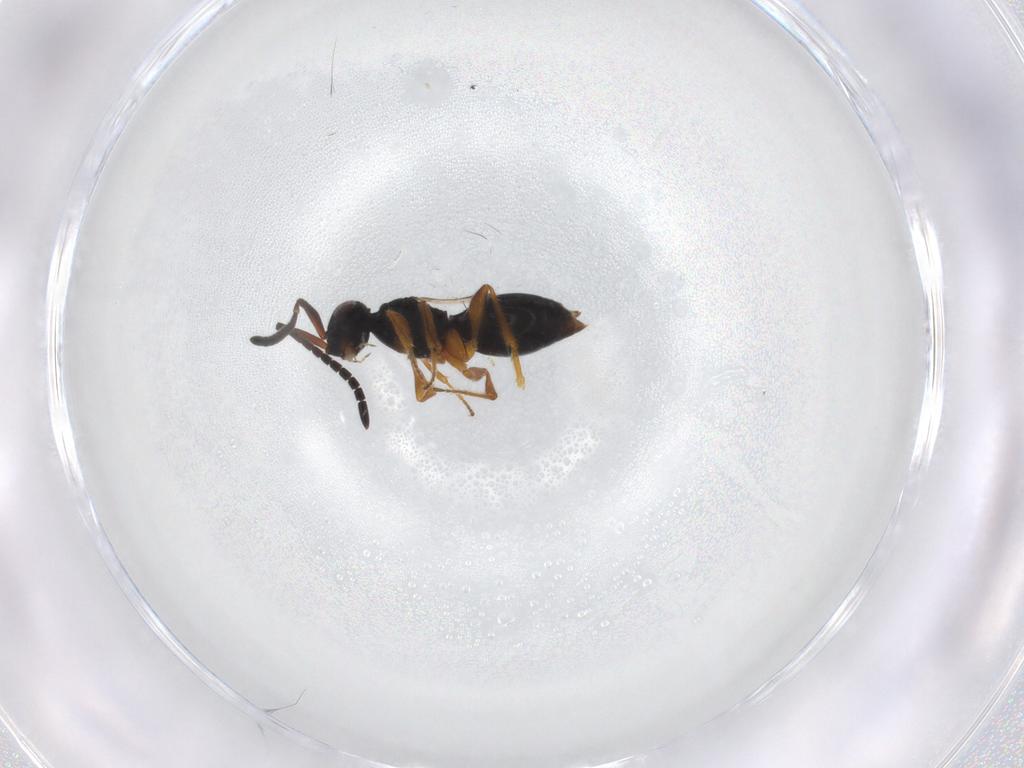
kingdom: Animalia
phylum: Arthropoda
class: Insecta
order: Hymenoptera
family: Megaspilidae
